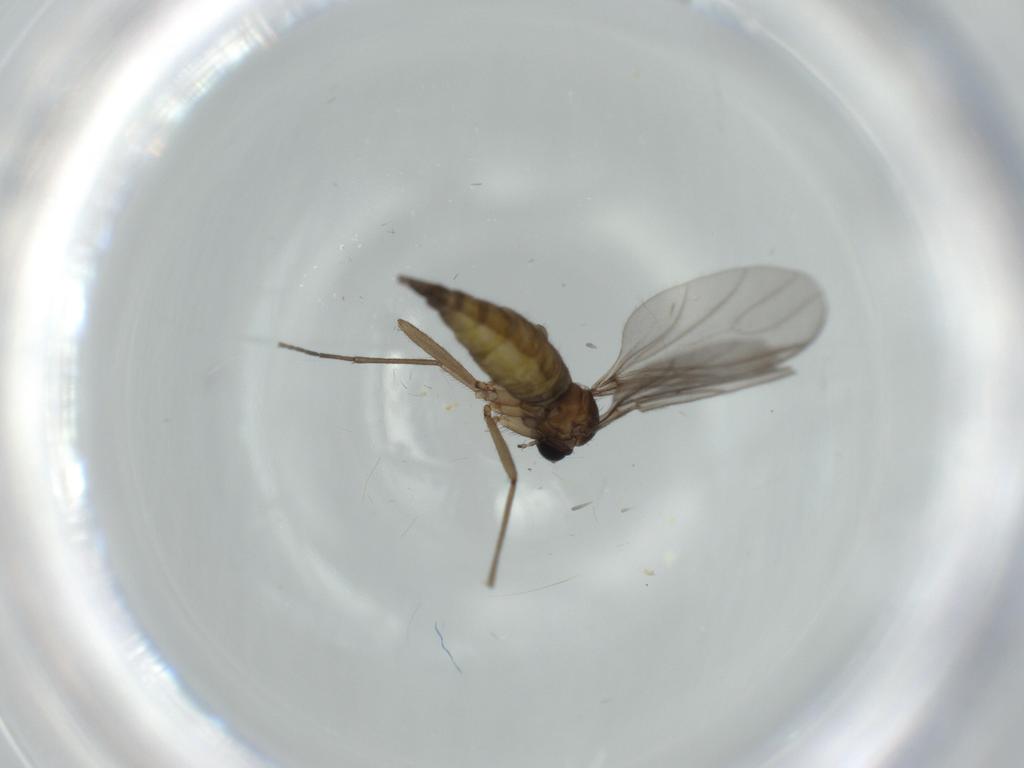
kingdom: Animalia
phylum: Arthropoda
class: Insecta
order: Diptera
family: Sciaridae
